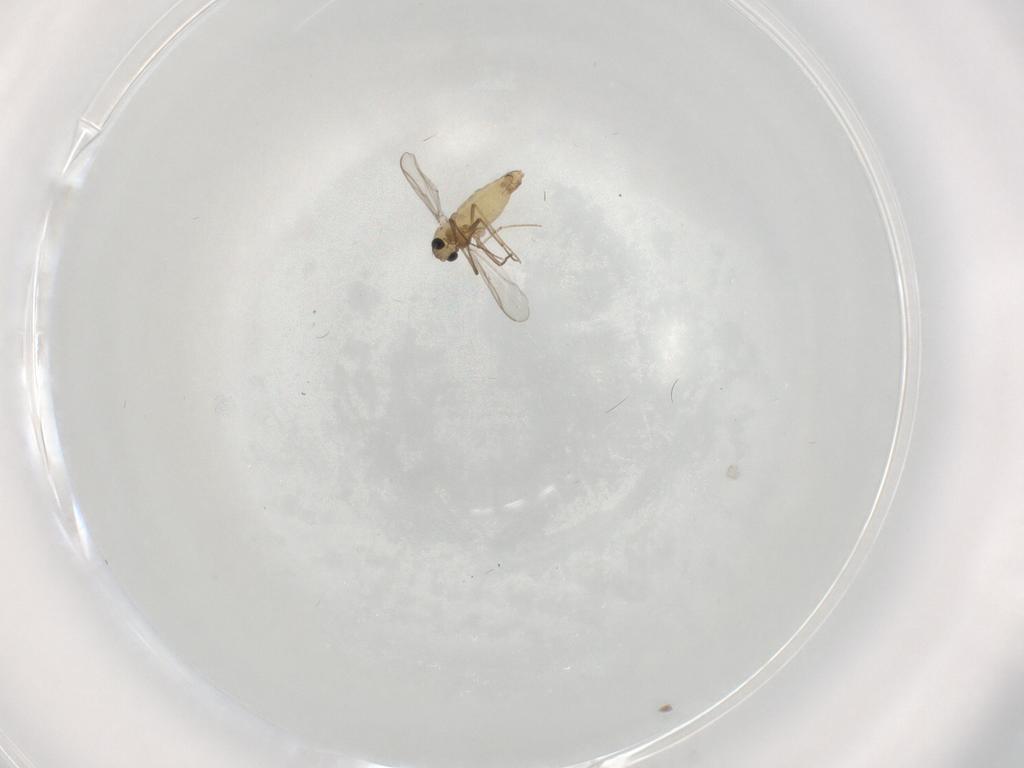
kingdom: Animalia
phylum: Arthropoda
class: Insecta
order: Diptera
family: Chironomidae
